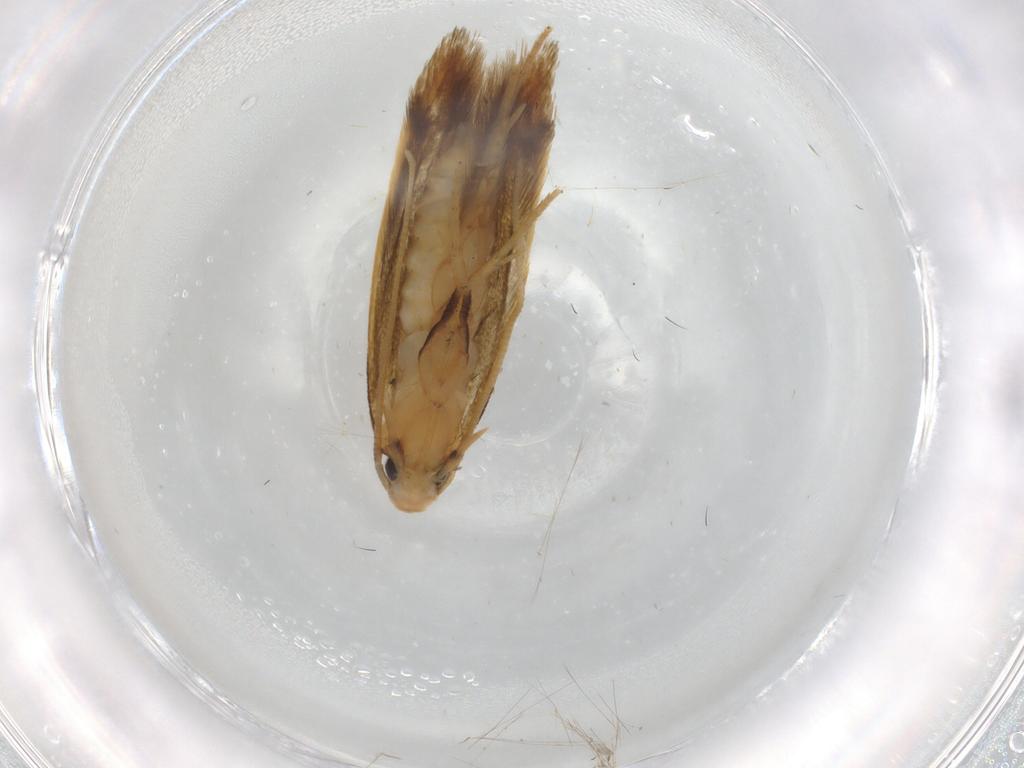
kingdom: Animalia
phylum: Arthropoda
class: Insecta
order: Lepidoptera
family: Tineidae
